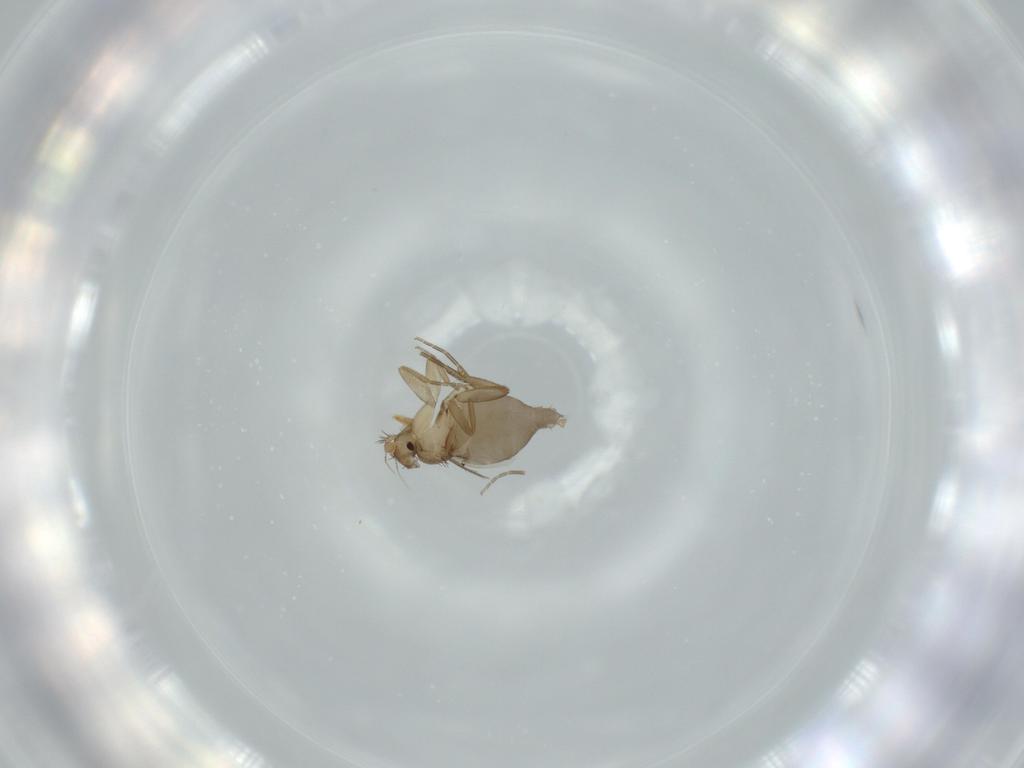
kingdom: Animalia
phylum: Arthropoda
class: Insecta
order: Diptera
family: Phoridae
